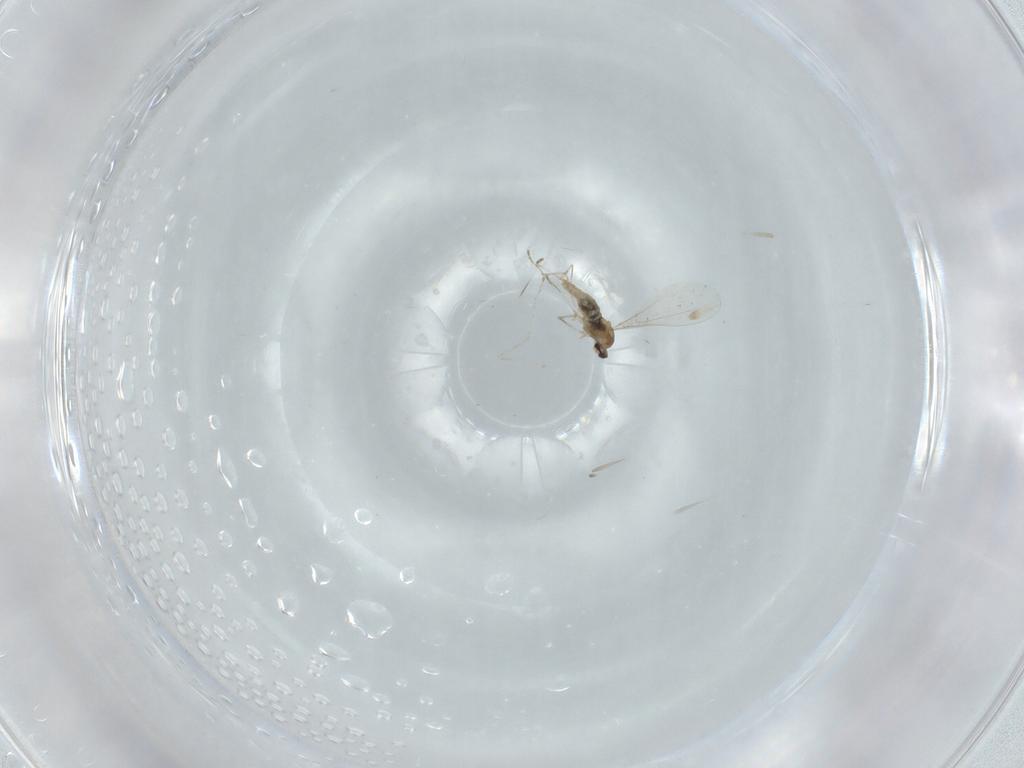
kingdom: Animalia
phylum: Arthropoda
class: Insecta
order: Diptera
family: Cecidomyiidae
